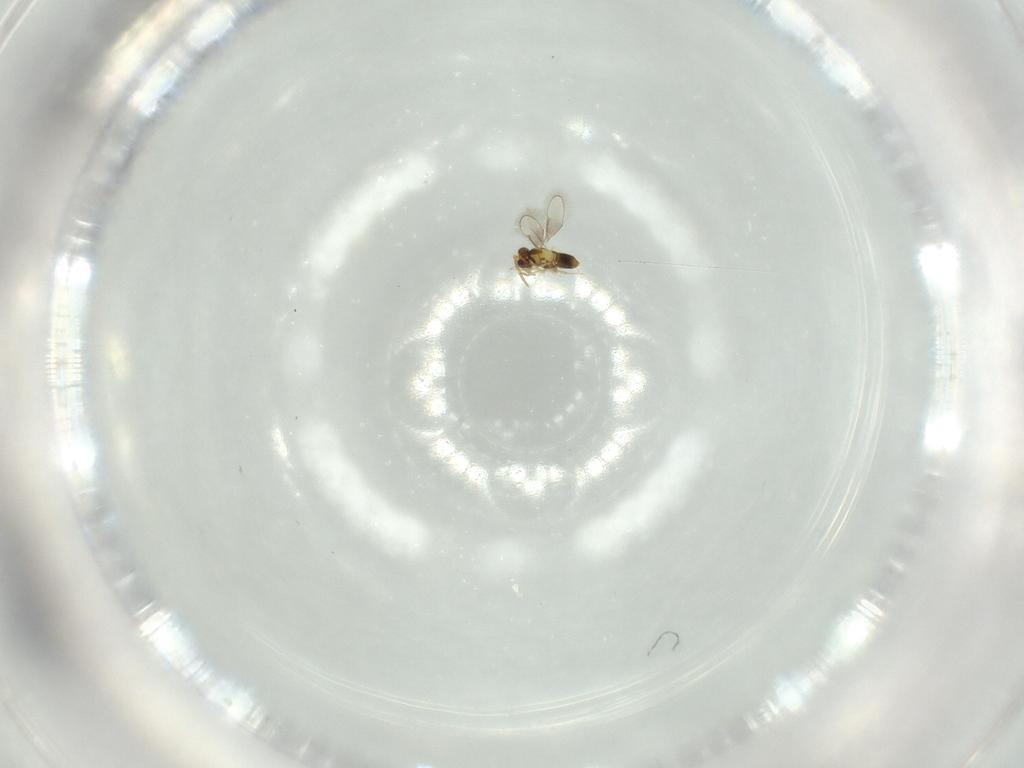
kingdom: Animalia
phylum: Arthropoda
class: Insecta
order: Hymenoptera
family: Aphelinidae
